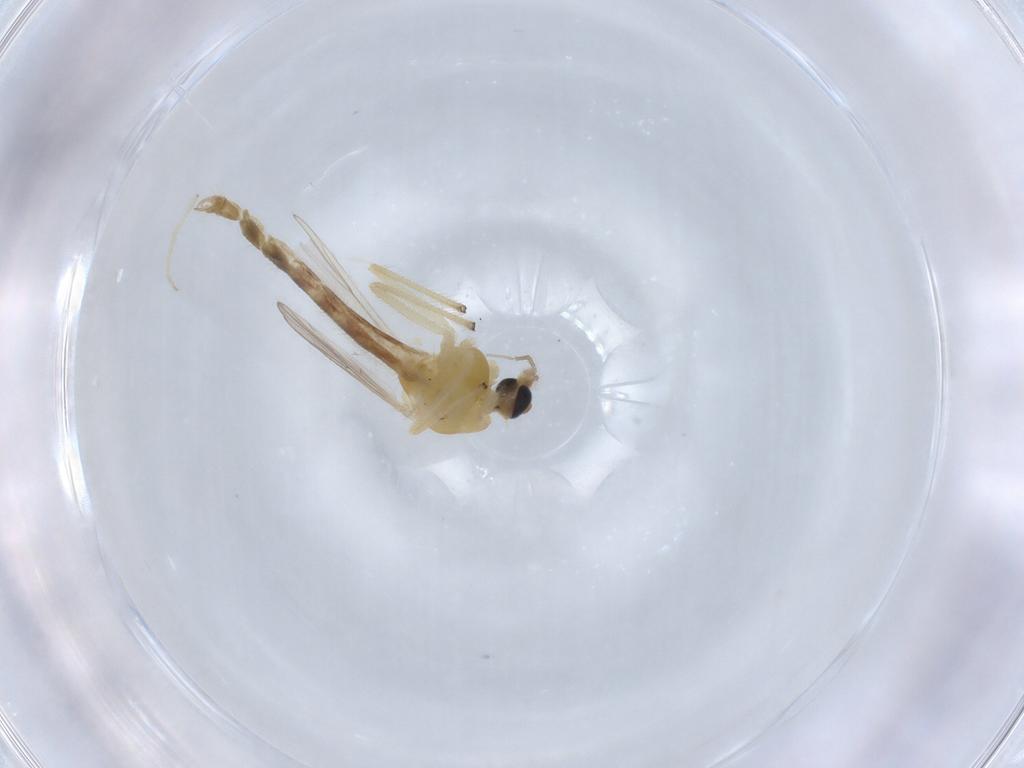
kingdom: Animalia
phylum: Arthropoda
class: Insecta
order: Diptera
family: Chironomidae
